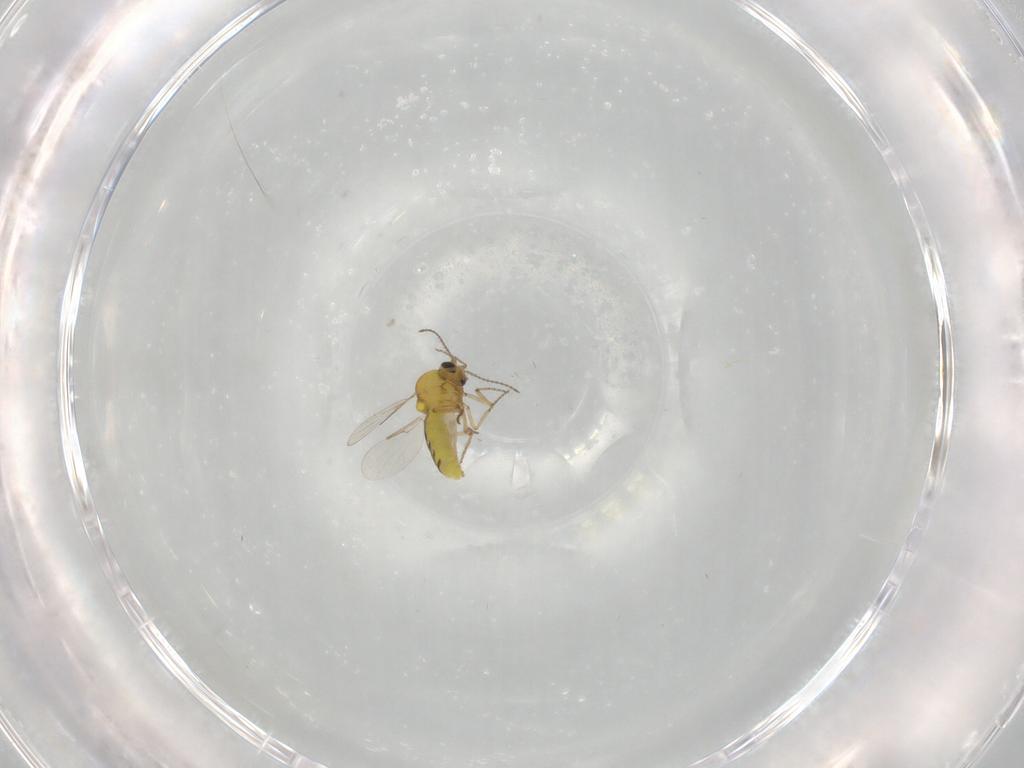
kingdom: Animalia
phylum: Arthropoda
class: Insecta
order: Diptera
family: Ceratopogonidae
